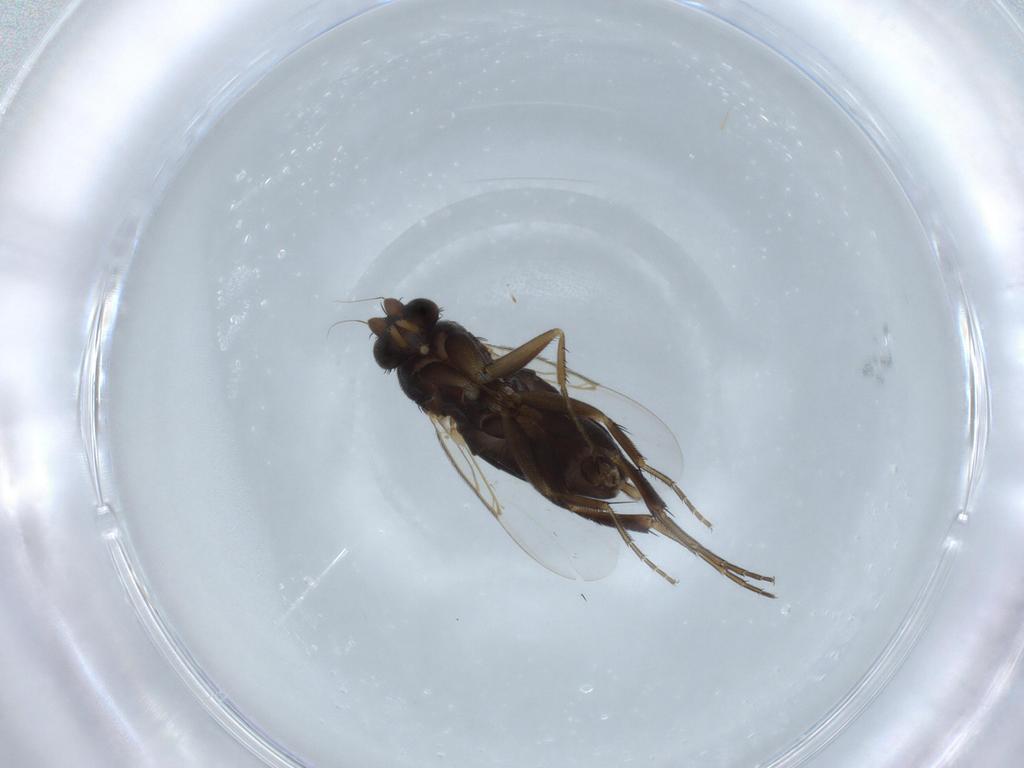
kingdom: Animalia
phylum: Arthropoda
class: Insecta
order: Diptera
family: Phoridae
